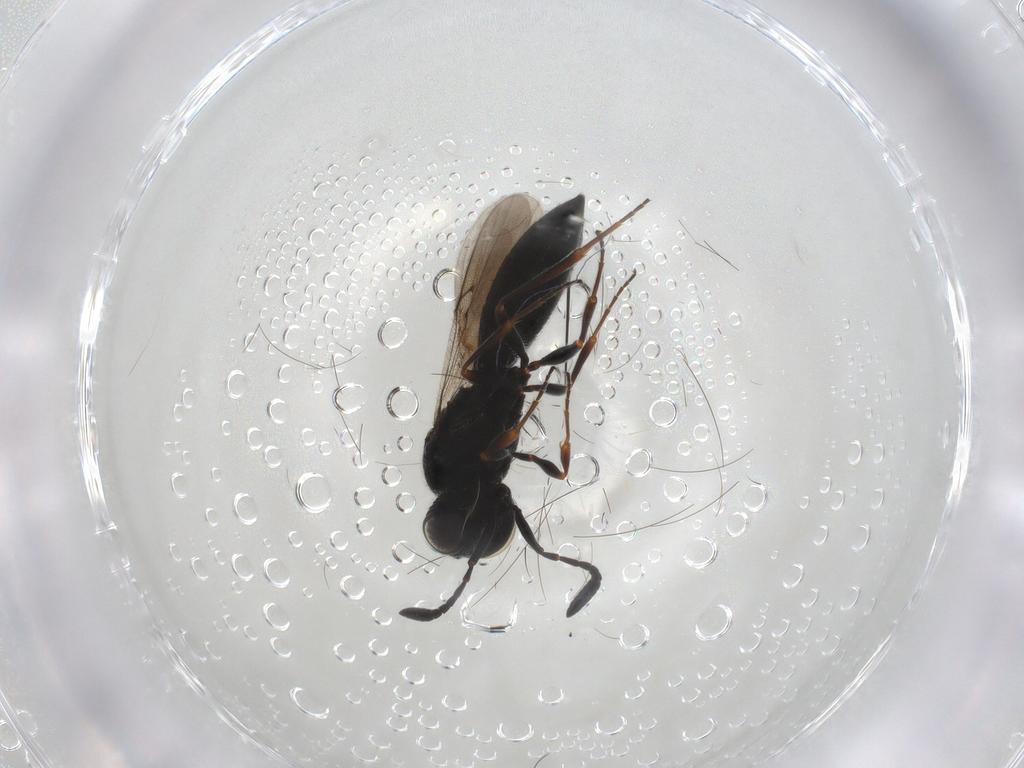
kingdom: Animalia
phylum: Arthropoda
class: Insecta
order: Hymenoptera
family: Scelionidae
